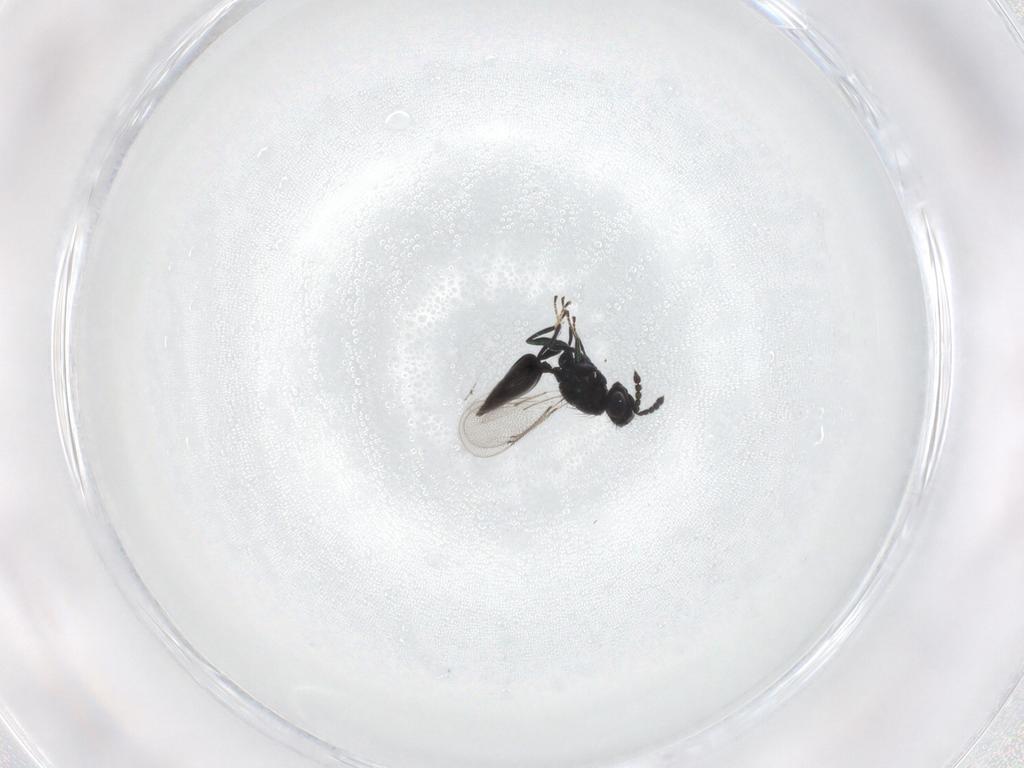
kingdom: Animalia
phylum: Arthropoda
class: Insecta
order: Hymenoptera
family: Eulophidae
